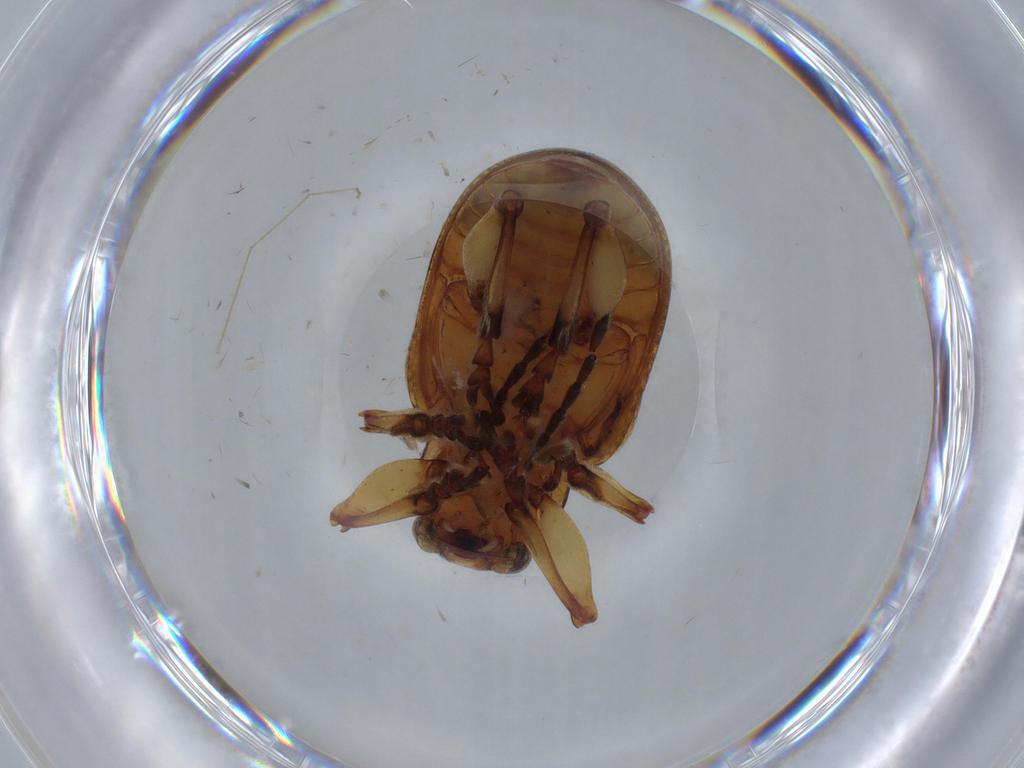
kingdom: Animalia
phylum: Arthropoda
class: Insecta
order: Coleoptera
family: Chrysomelidae
